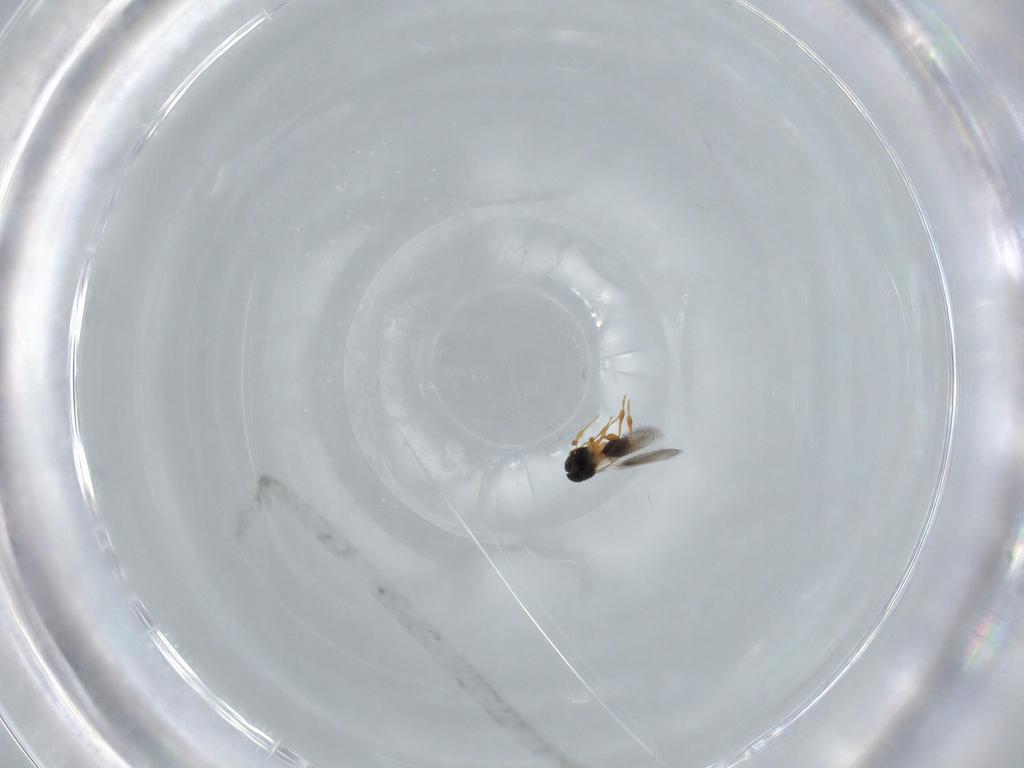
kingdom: Animalia
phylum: Arthropoda
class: Insecta
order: Hymenoptera
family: Platygastridae
